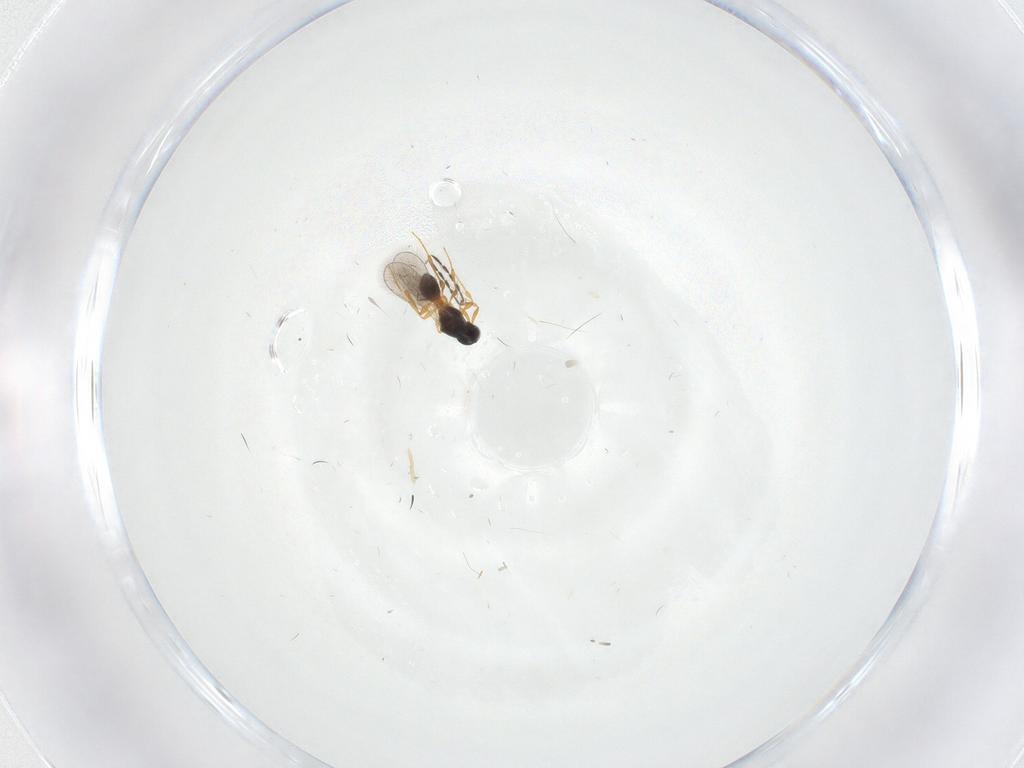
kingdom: Animalia
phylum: Arthropoda
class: Insecta
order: Hymenoptera
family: Platygastridae
